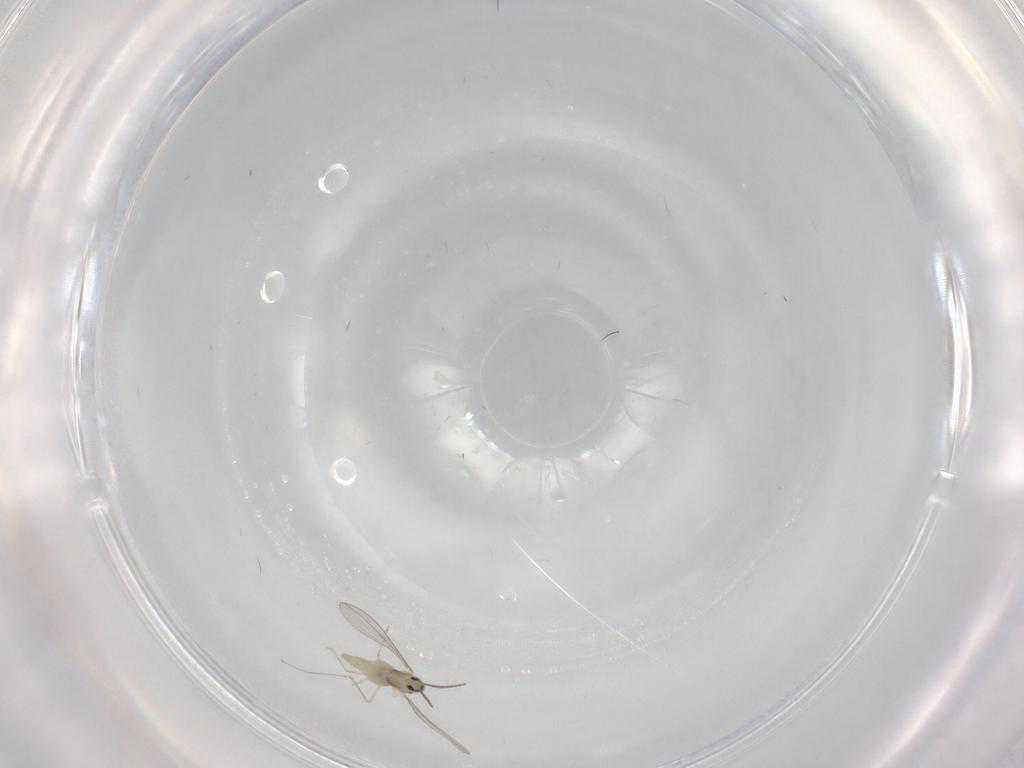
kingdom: Animalia
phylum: Arthropoda
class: Insecta
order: Diptera
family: Cecidomyiidae
